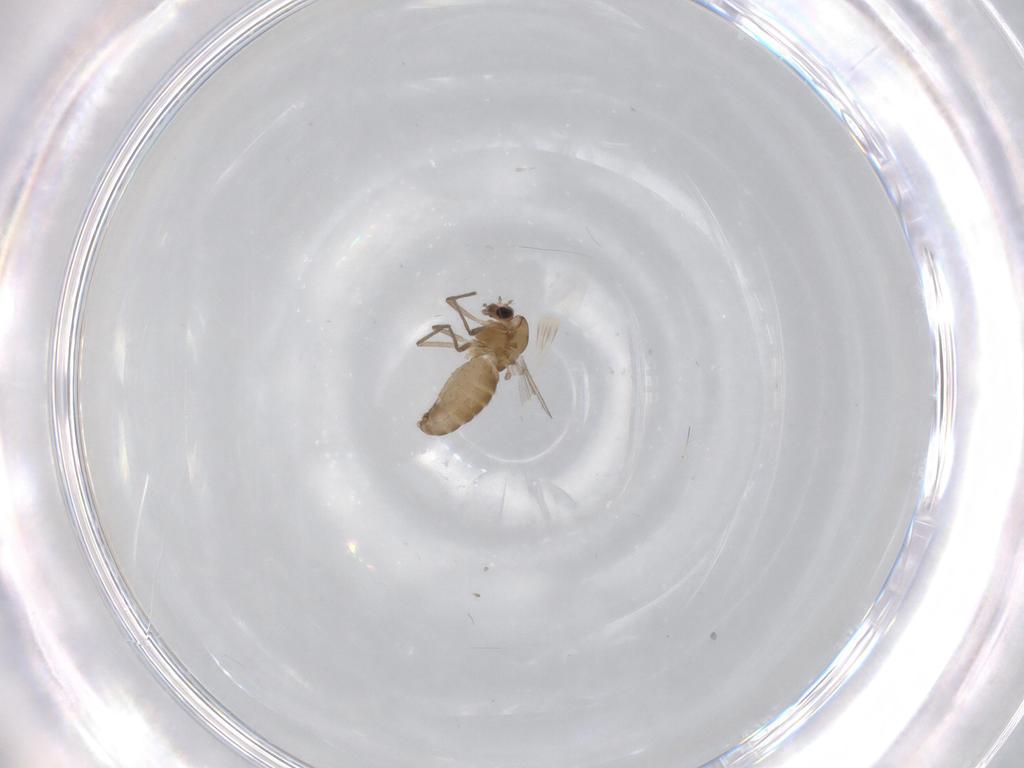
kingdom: Animalia
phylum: Arthropoda
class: Insecta
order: Diptera
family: Chironomidae
